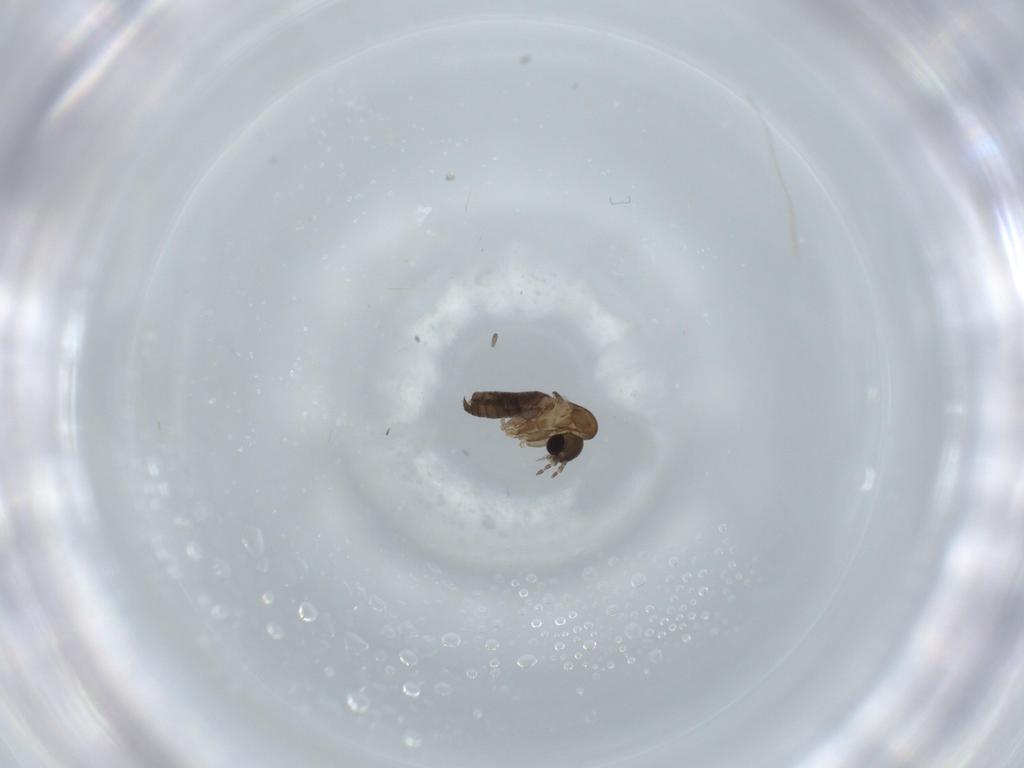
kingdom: Animalia
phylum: Arthropoda
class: Insecta
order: Diptera
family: Psychodidae
